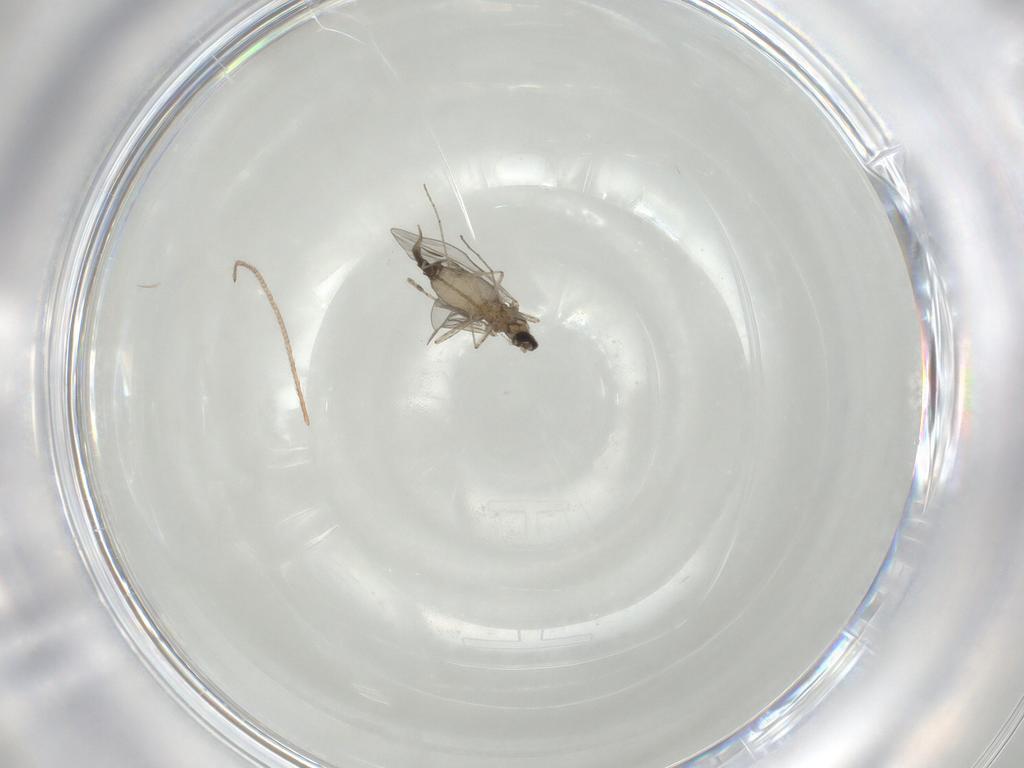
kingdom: Animalia
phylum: Arthropoda
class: Insecta
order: Diptera
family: Cecidomyiidae
